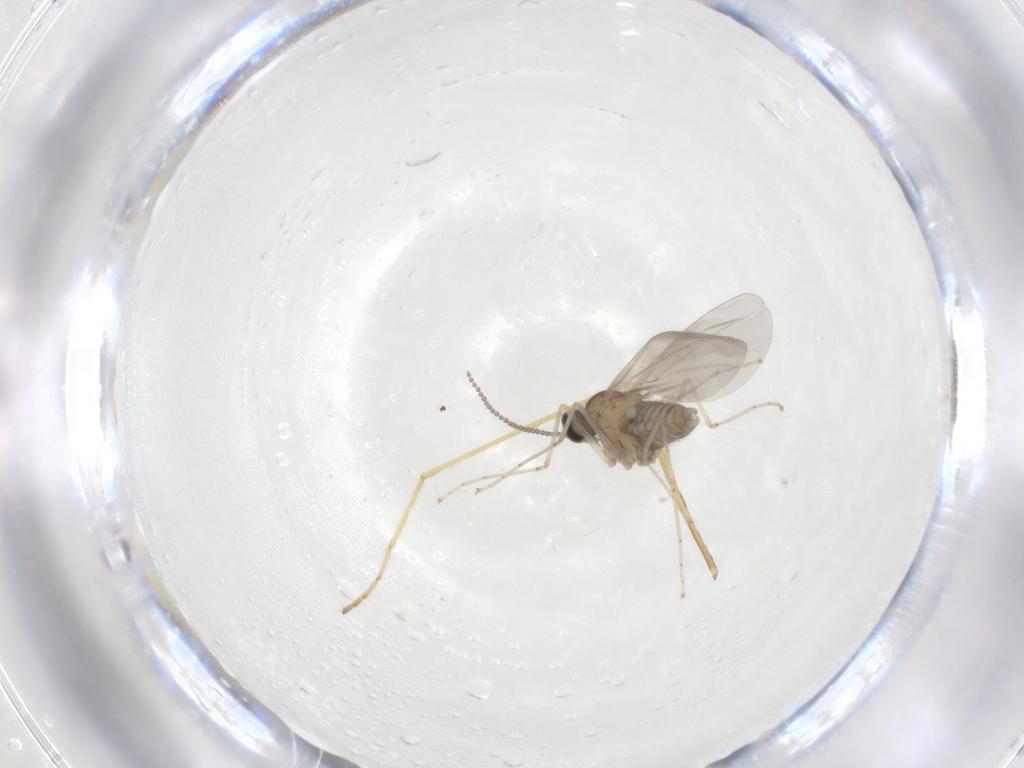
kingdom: Animalia
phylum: Arthropoda
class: Insecta
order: Diptera
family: Cecidomyiidae
